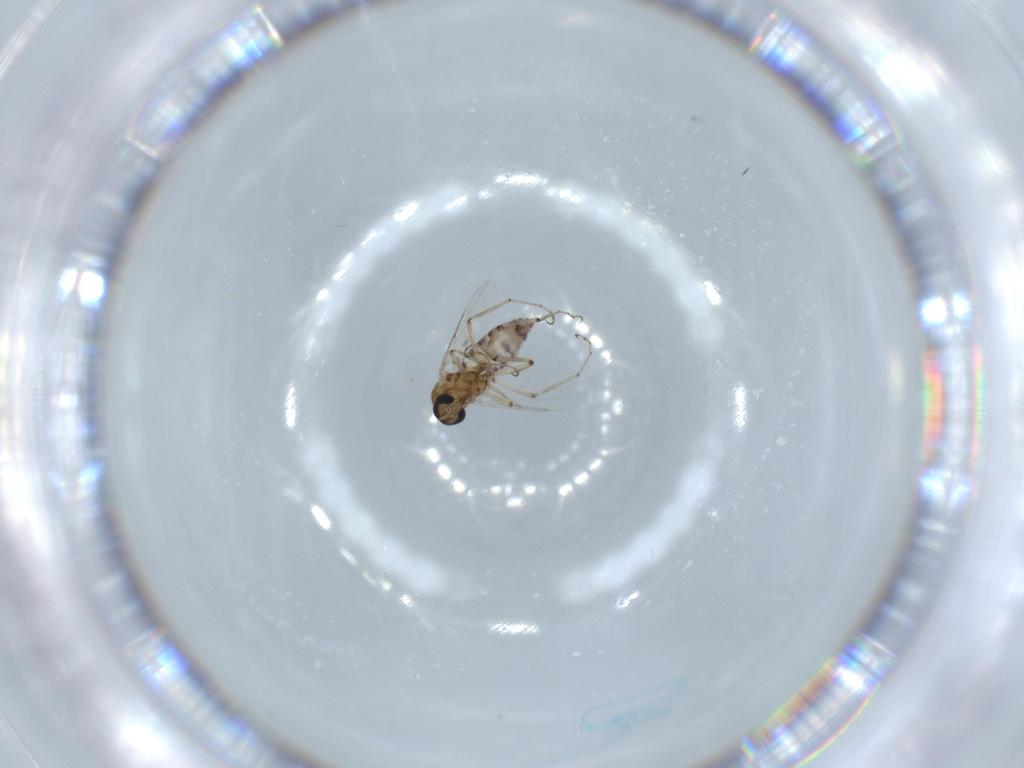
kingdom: Animalia
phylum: Arthropoda
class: Insecta
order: Diptera
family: Ceratopogonidae
